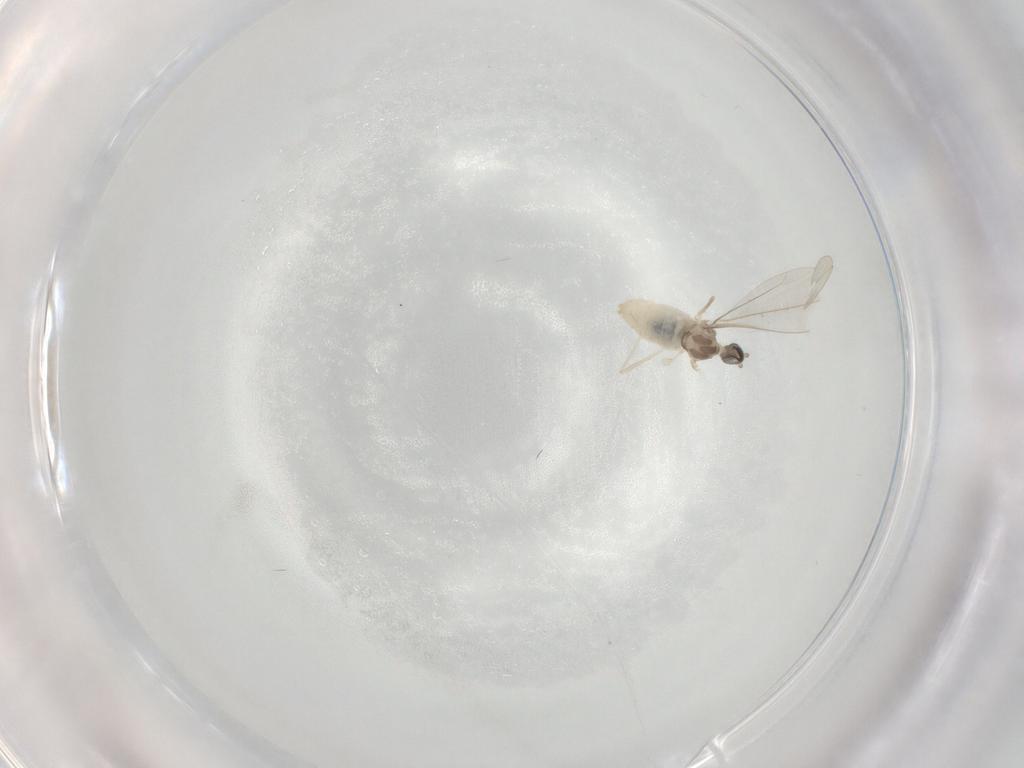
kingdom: Animalia
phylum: Arthropoda
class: Insecta
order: Diptera
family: Cecidomyiidae
